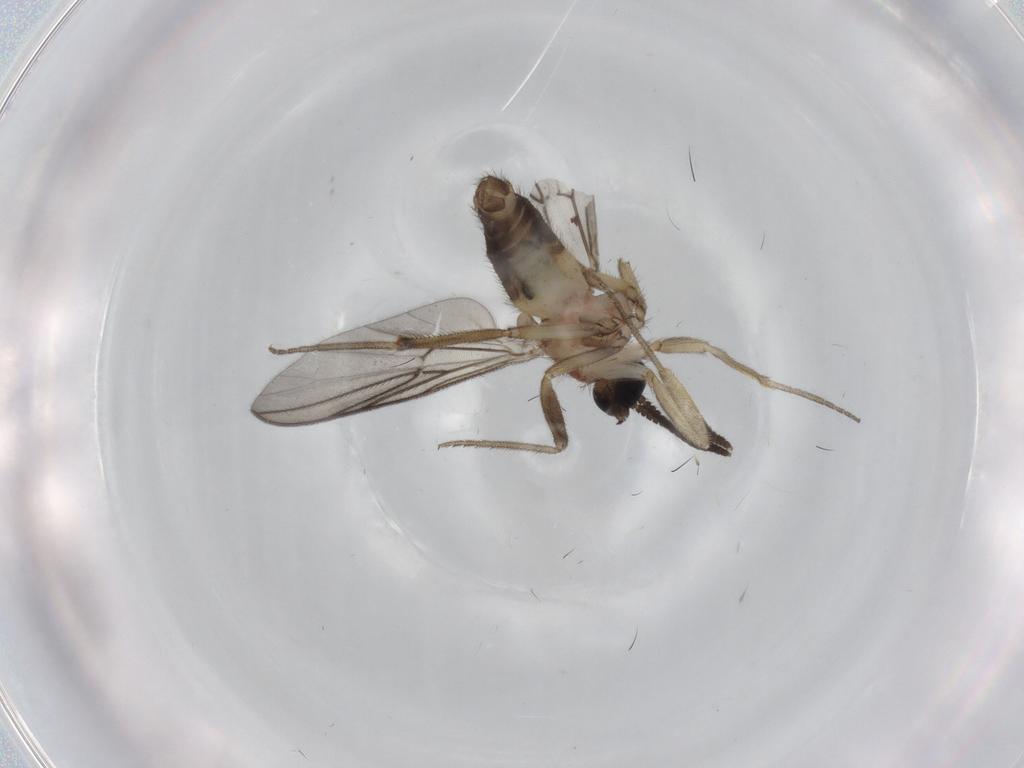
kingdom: Animalia
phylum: Arthropoda
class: Insecta
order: Diptera
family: Anisopodidae
